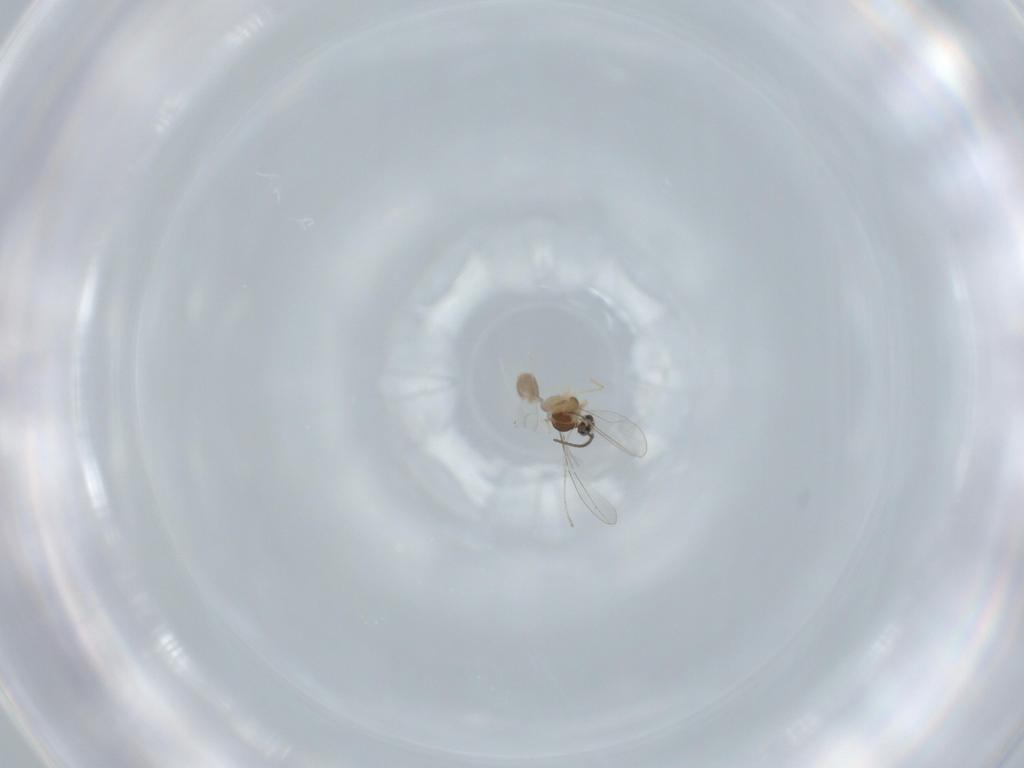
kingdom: Animalia
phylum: Arthropoda
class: Insecta
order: Diptera
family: Cecidomyiidae
